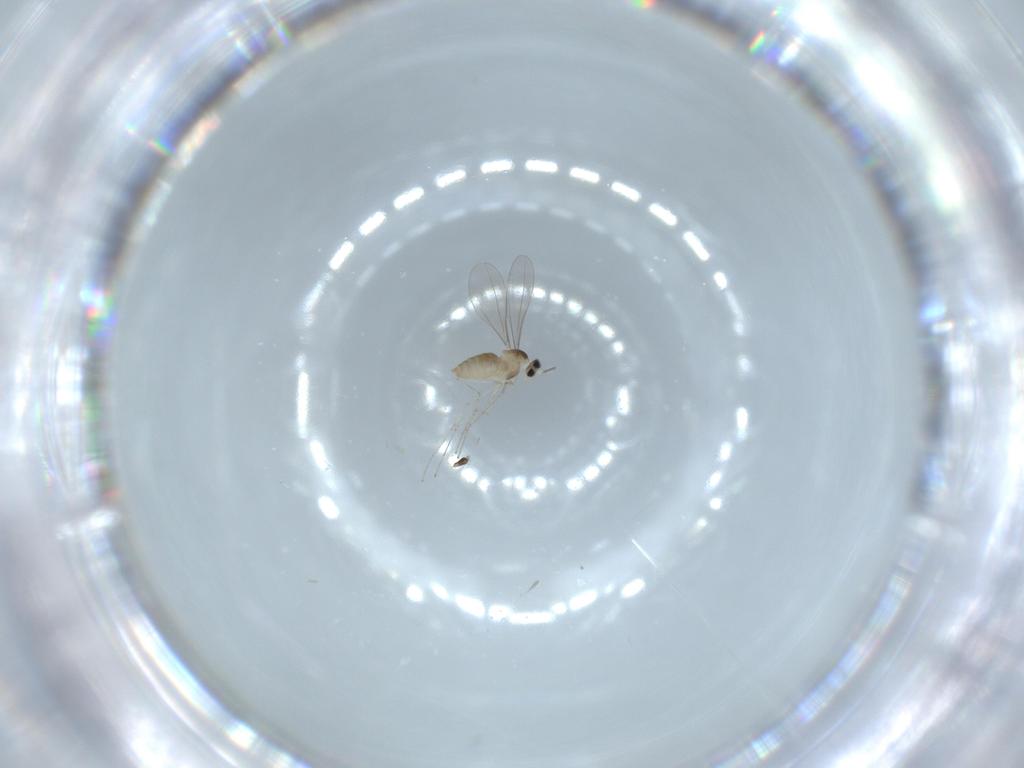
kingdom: Animalia
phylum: Arthropoda
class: Insecta
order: Diptera
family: Cecidomyiidae
